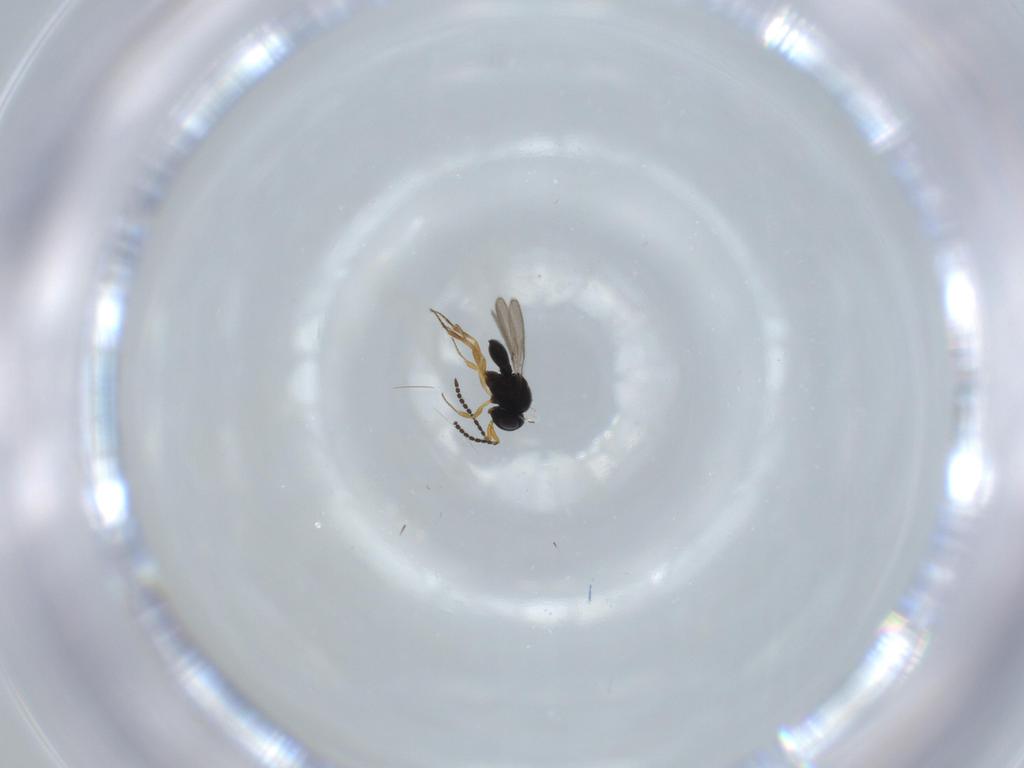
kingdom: Animalia
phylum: Arthropoda
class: Insecta
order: Hymenoptera
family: Scelionidae
